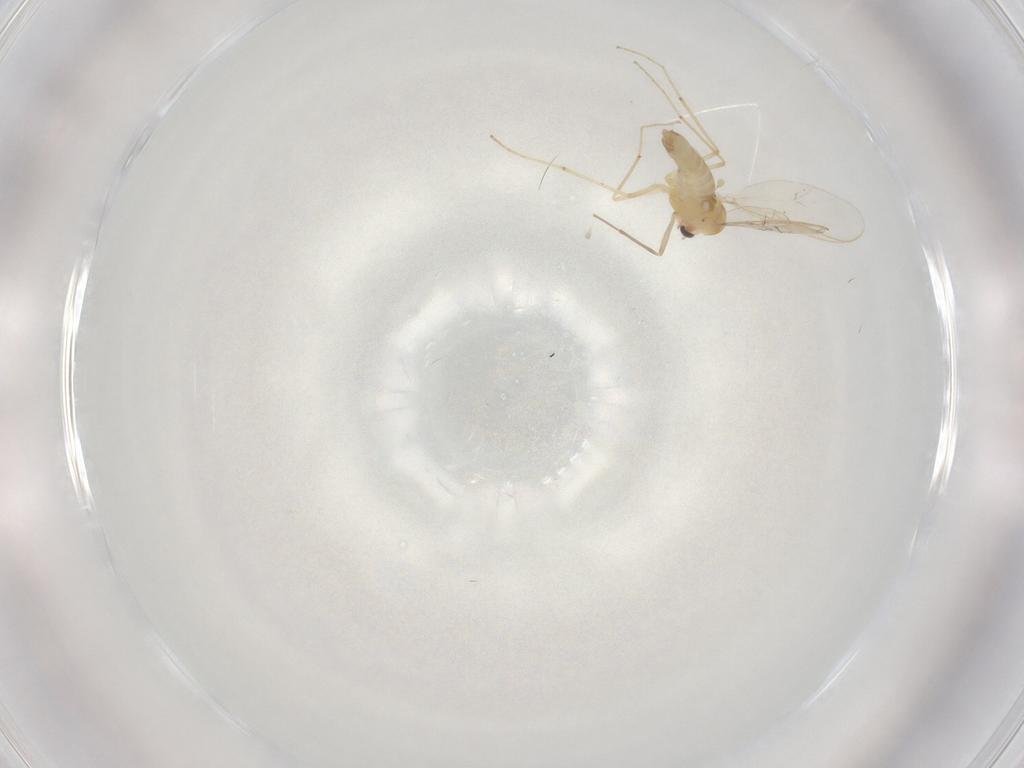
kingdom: Animalia
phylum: Arthropoda
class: Insecta
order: Diptera
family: Chironomidae
